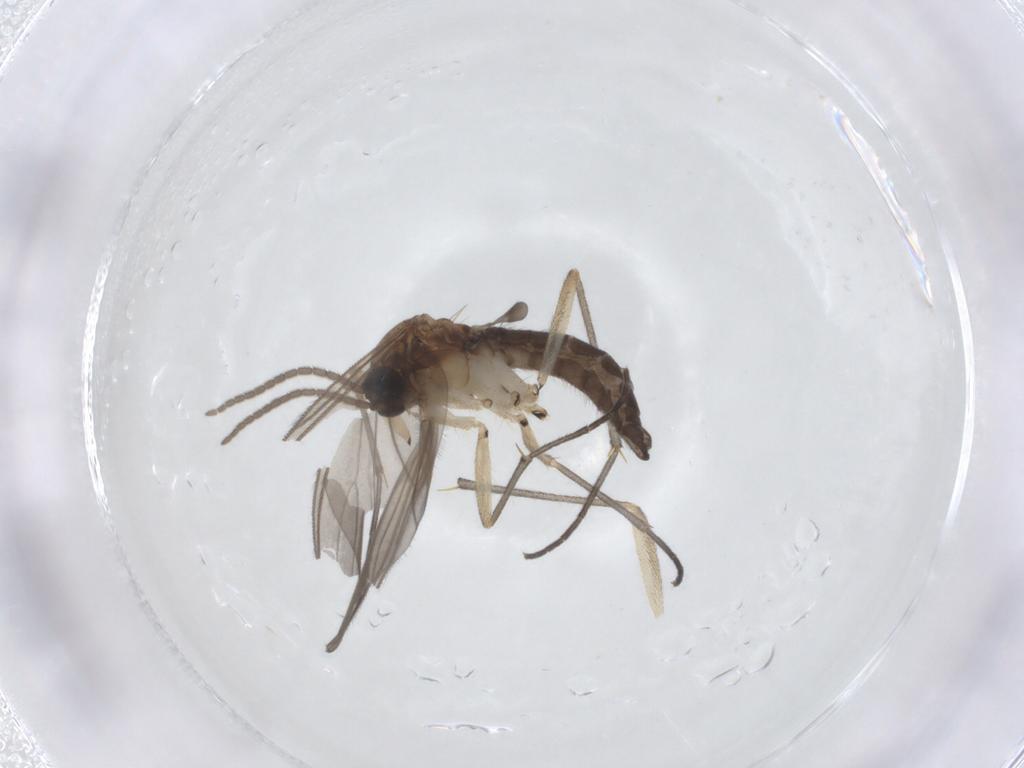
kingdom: Animalia
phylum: Arthropoda
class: Insecta
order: Diptera
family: Sciaridae
